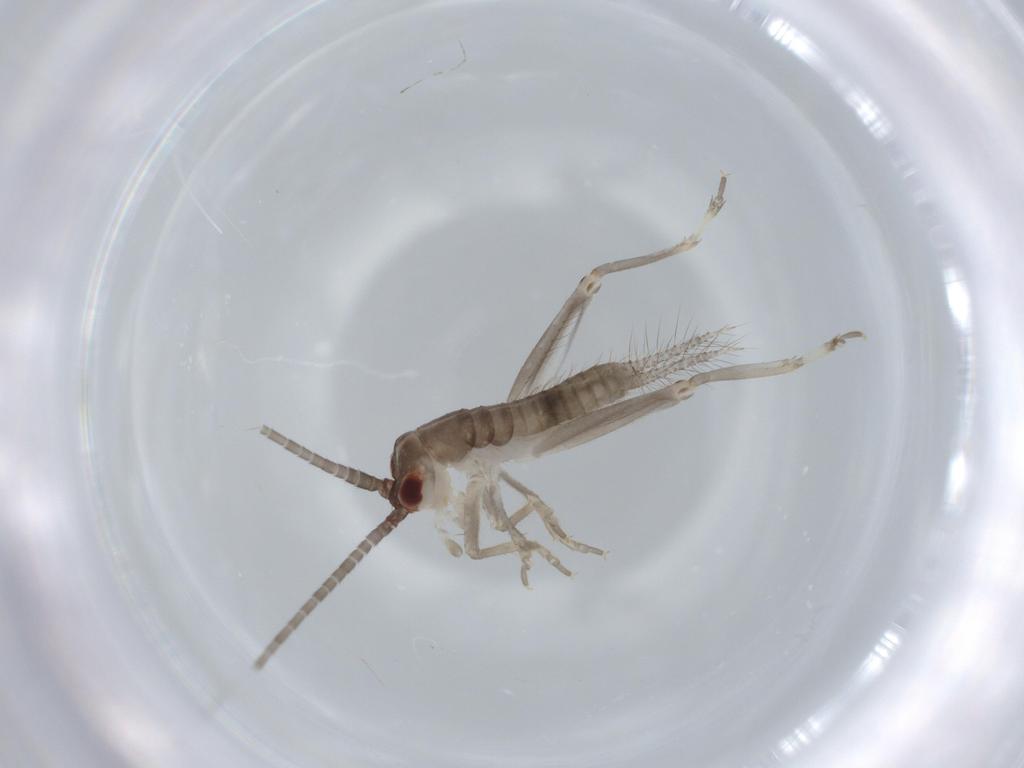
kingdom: Animalia
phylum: Arthropoda
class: Insecta
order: Orthoptera
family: Gryllidae
